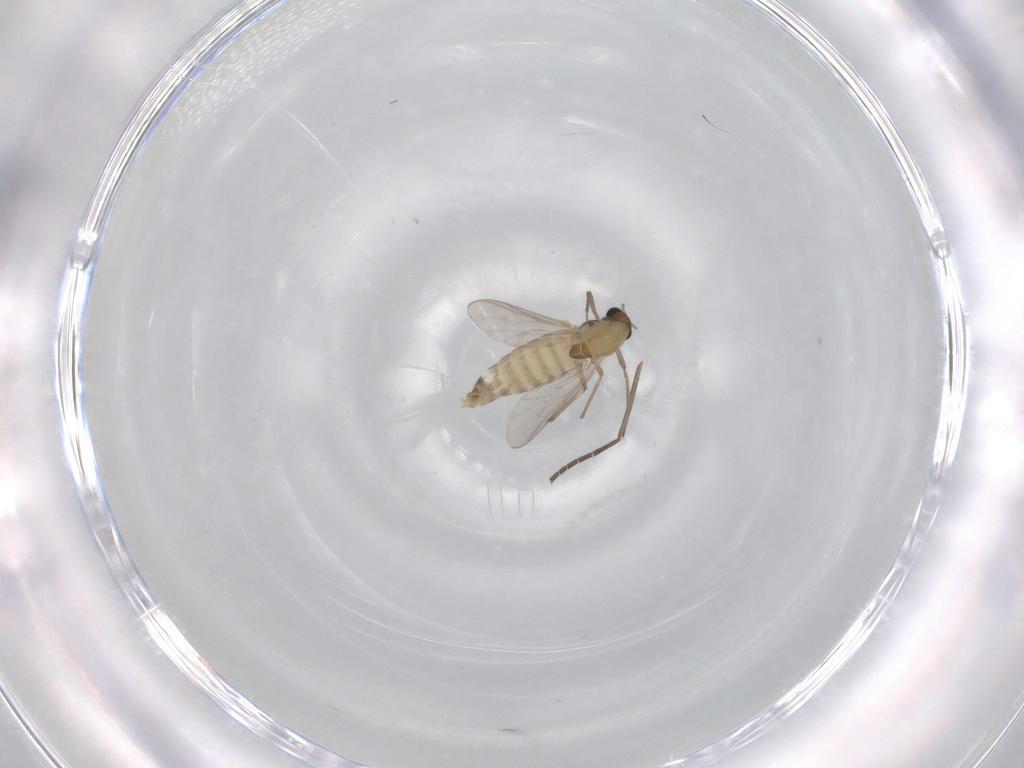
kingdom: Animalia
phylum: Arthropoda
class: Insecta
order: Diptera
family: Chironomidae
